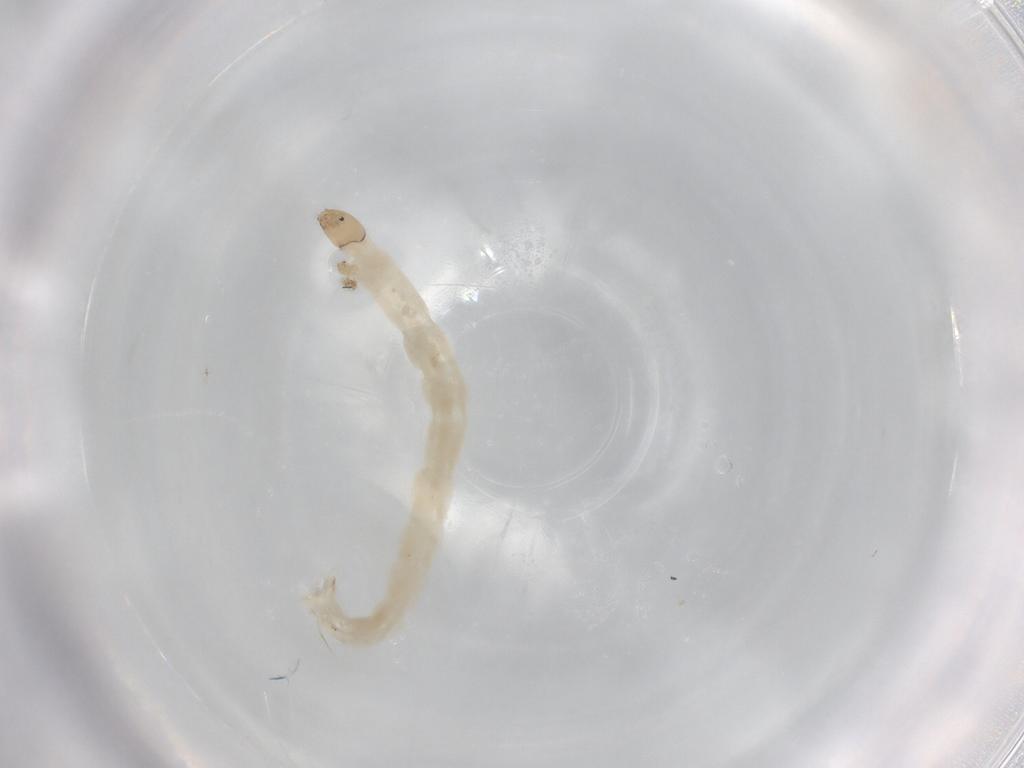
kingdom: Animalia
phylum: Arthropoda
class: Insecta
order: Diptera
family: Chironomidae
